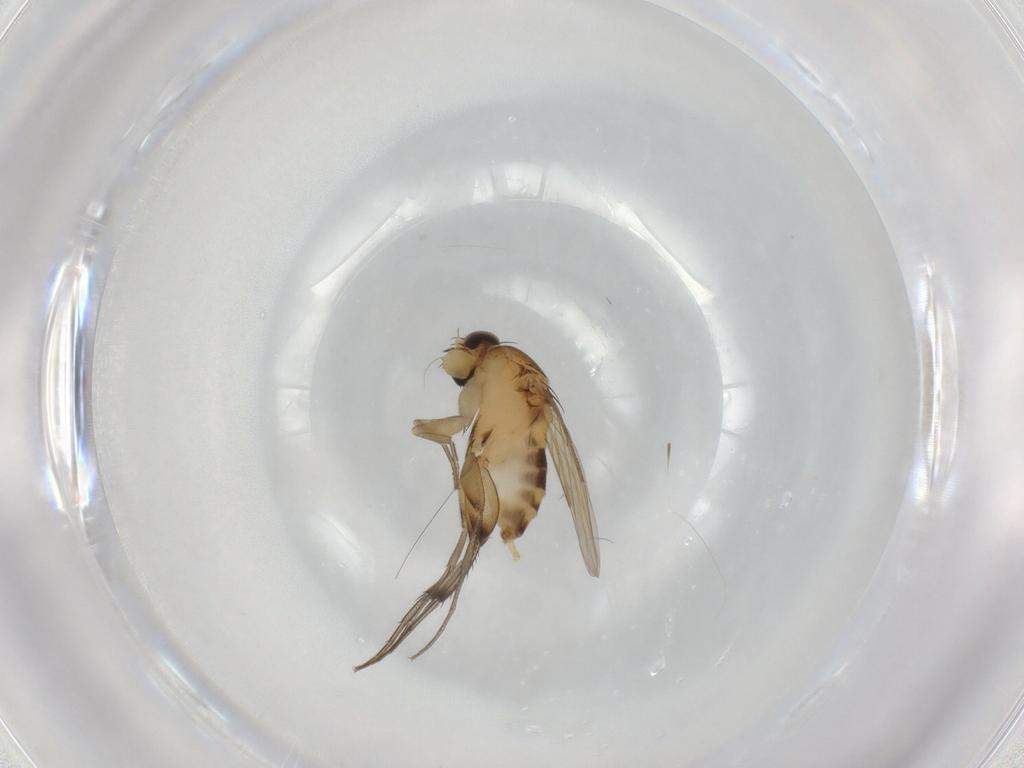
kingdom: Animalia
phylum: Arthropoda
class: Insecta
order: Diptera
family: Phoridae
